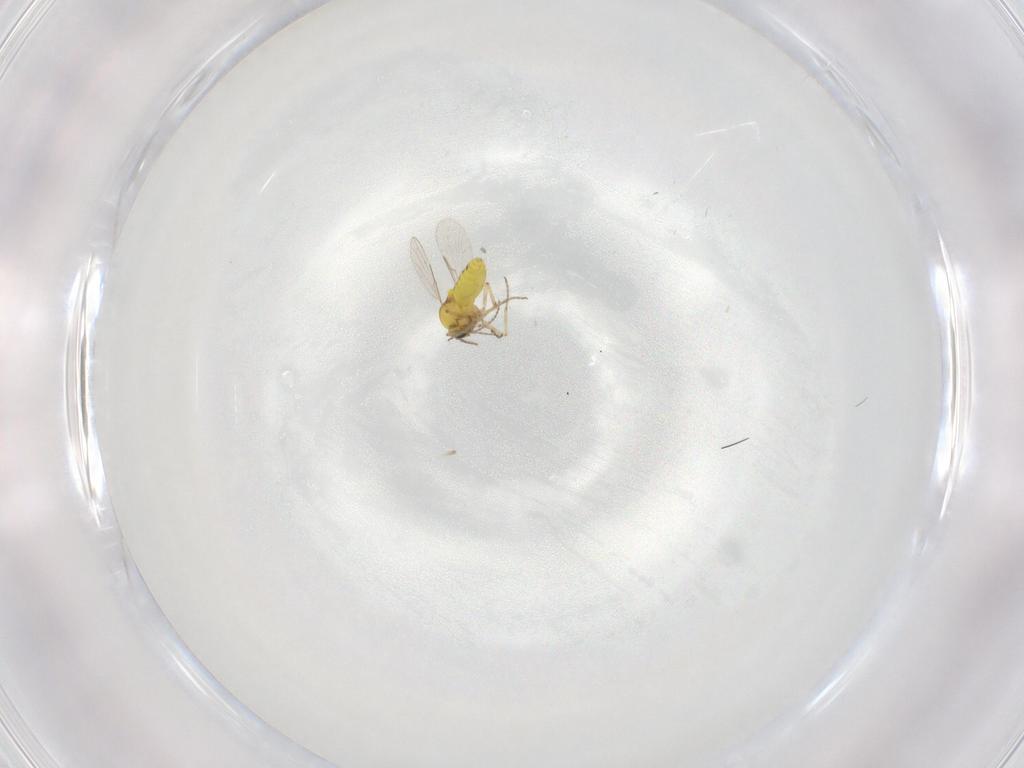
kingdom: Animalia
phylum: Arthropoda
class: Insecta
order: Diptera
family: Ceratopogonidae
